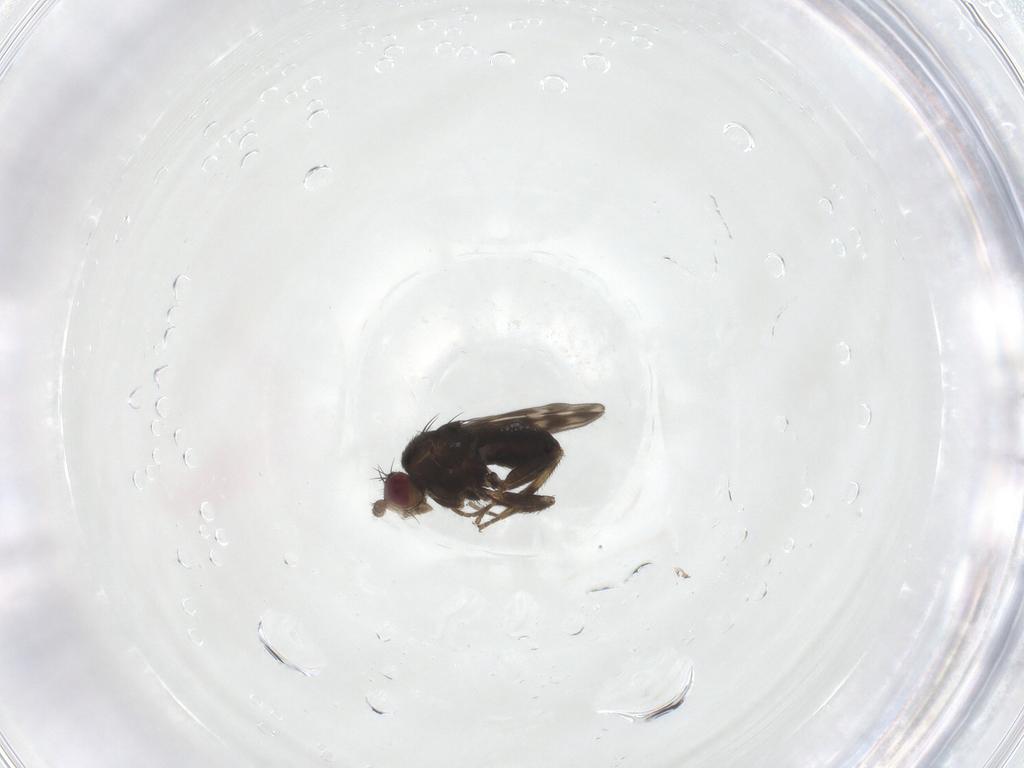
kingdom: Animalia
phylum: Arthropoda
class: Insecta
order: Diptera
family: Sphaeroceridae
